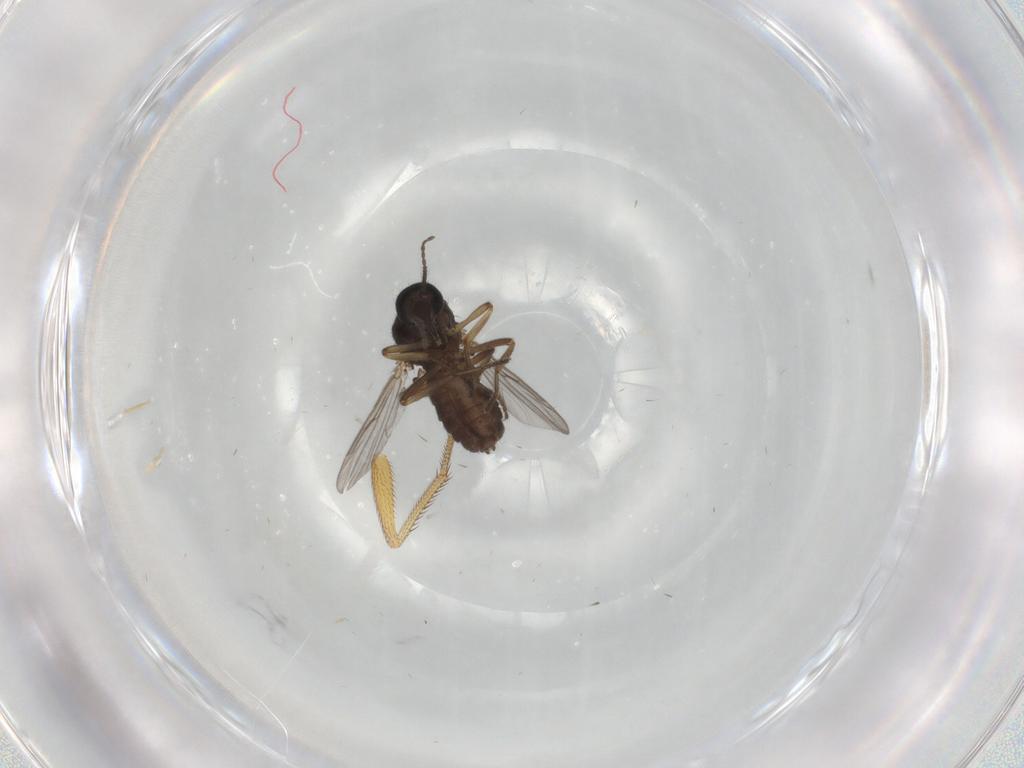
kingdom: Animalia
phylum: Arthropoda
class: Insecta
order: Diptera
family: Ceratopogonidae
